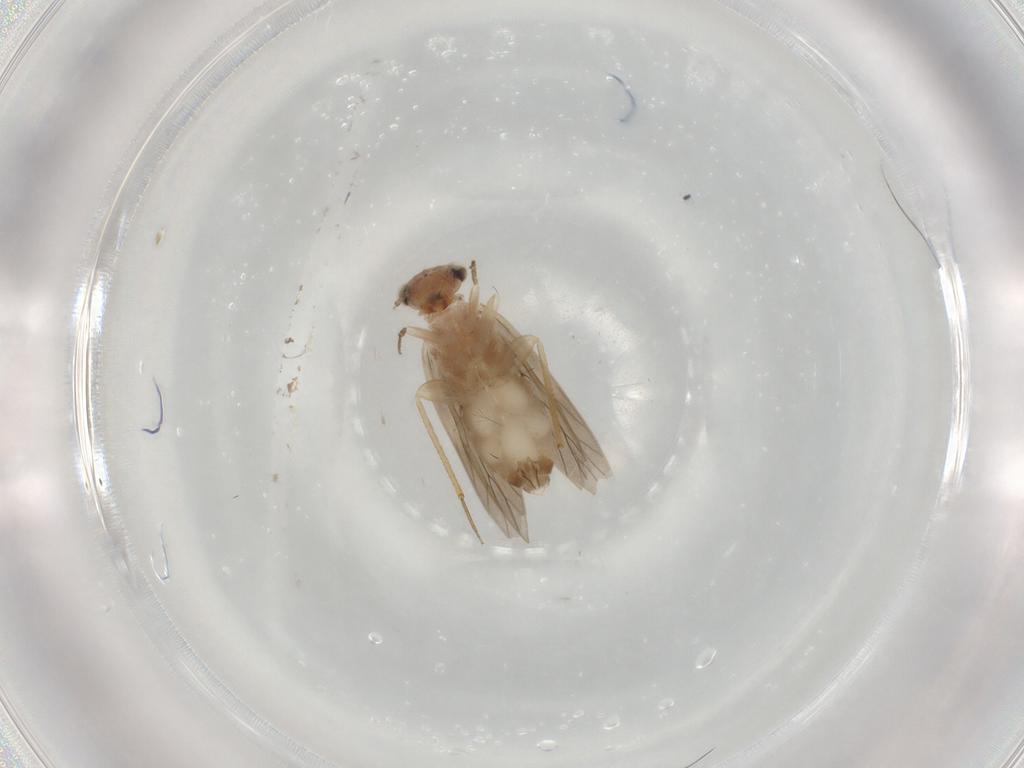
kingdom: Animalia
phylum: Arthropoda
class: Insecta
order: Psocodea
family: Lepidopsocidae
